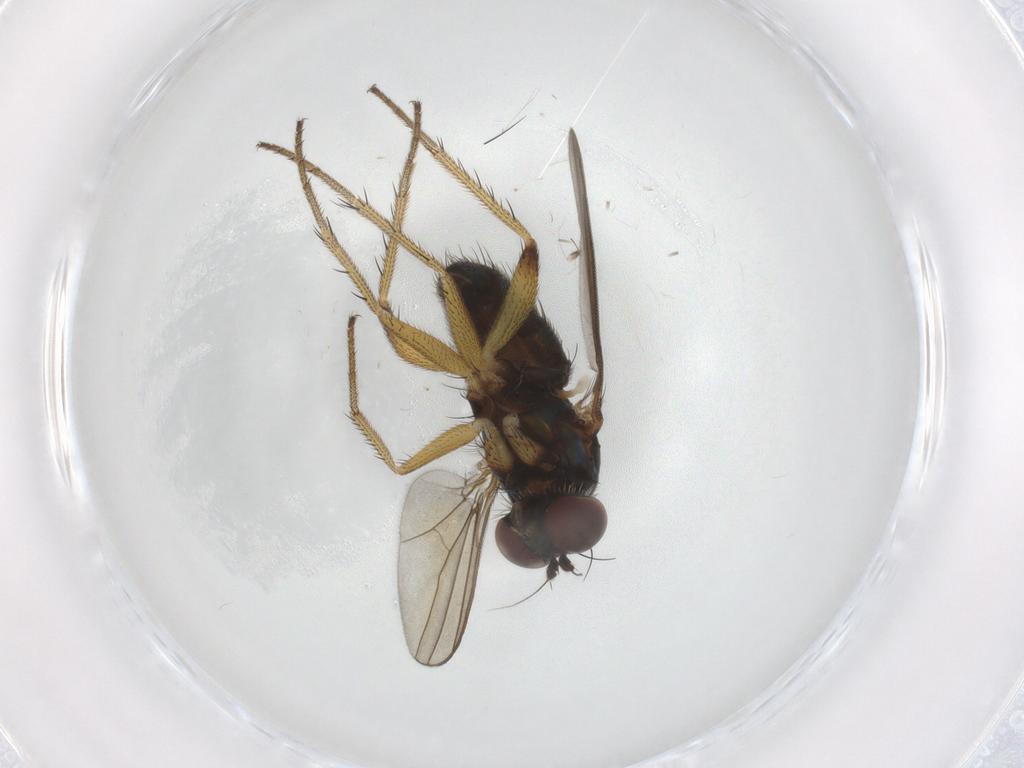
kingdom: Animalia
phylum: Arthropoda
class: Insecta
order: Diptera
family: Dolichopodidae
